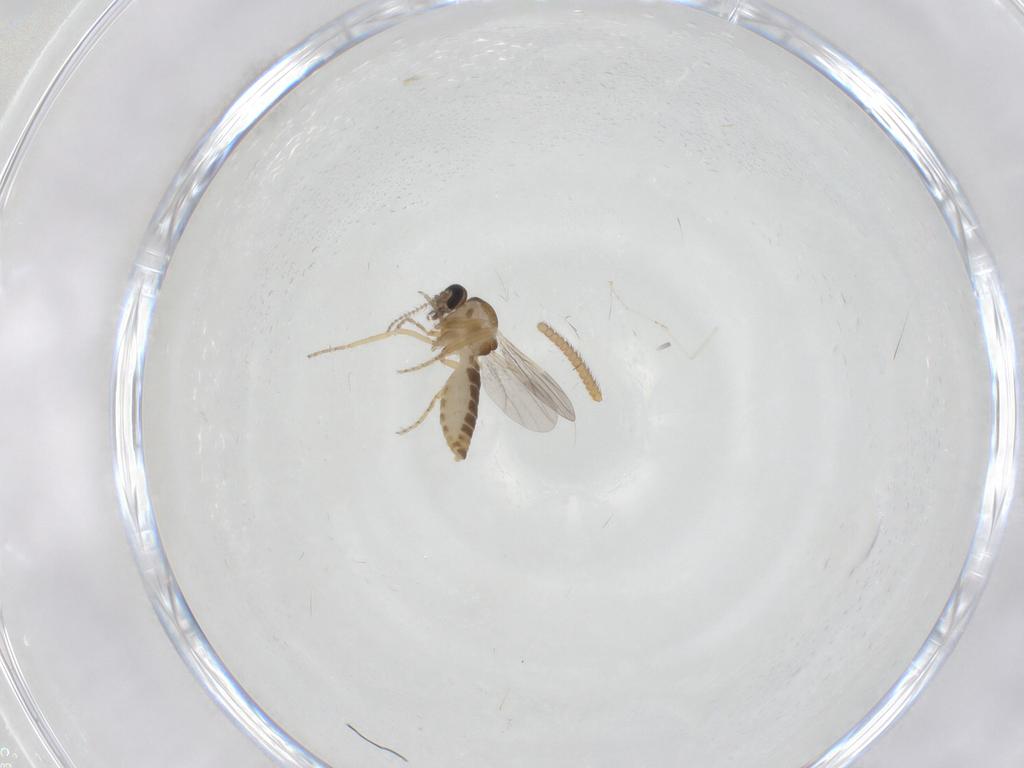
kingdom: Animalia
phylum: Arthropoda
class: Insecta
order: Diptera
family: Ceratopogonidae
